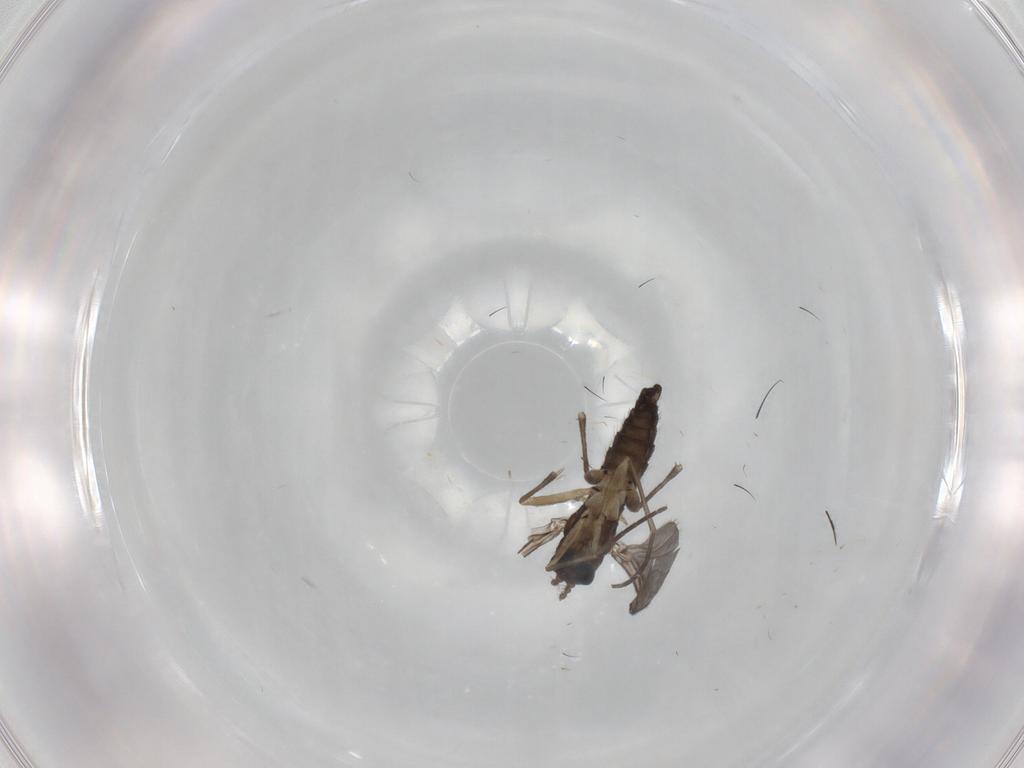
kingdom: Animalia
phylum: Arthropoda
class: Insecta
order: Diptera
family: Sciaridae
